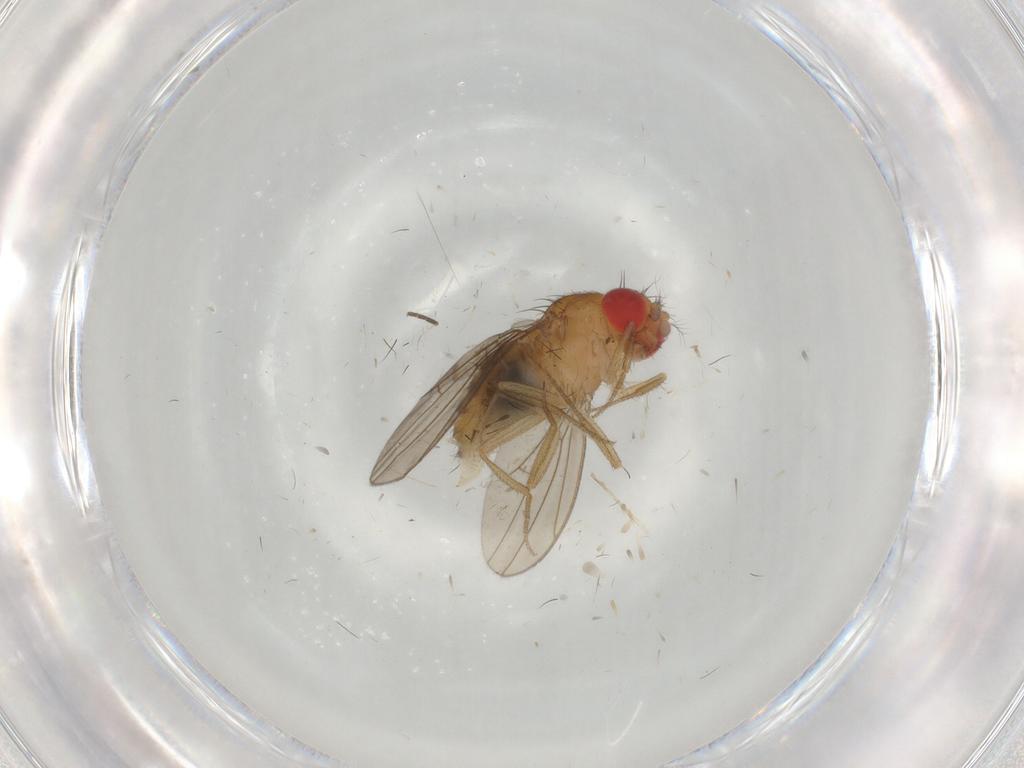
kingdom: Animalia
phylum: Arthropoda
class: Insecta
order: Diptera
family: Drosophilidae
